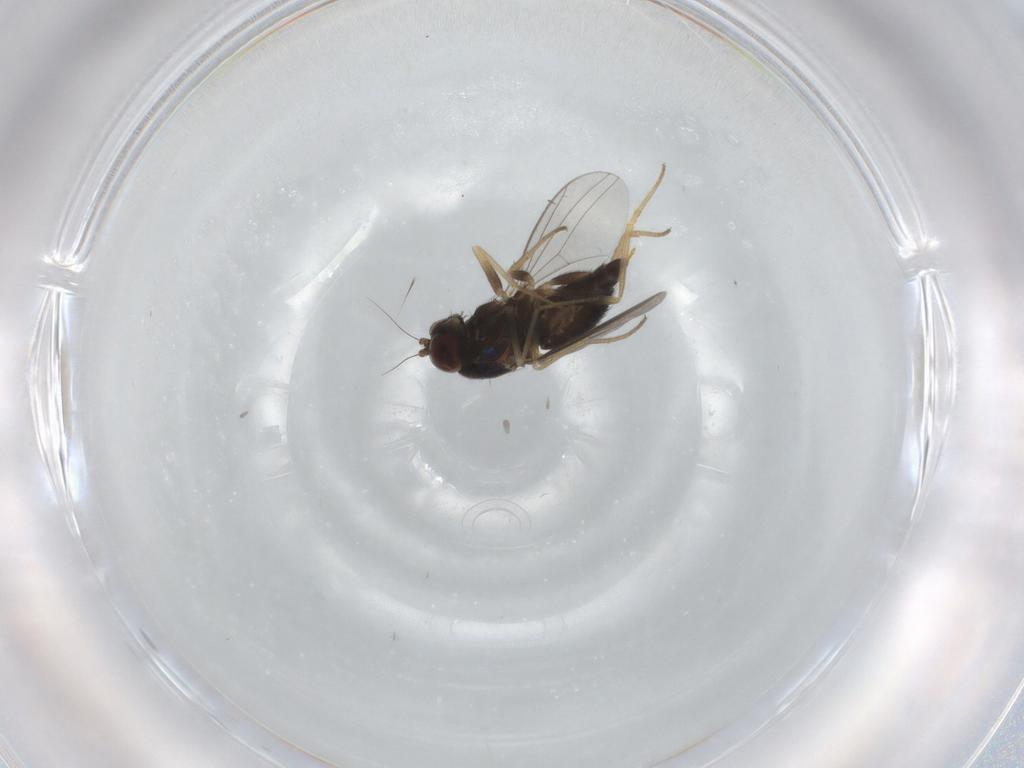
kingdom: Animalia
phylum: Arthropoda
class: Insecta
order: Diptera
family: Dolichopodidae
